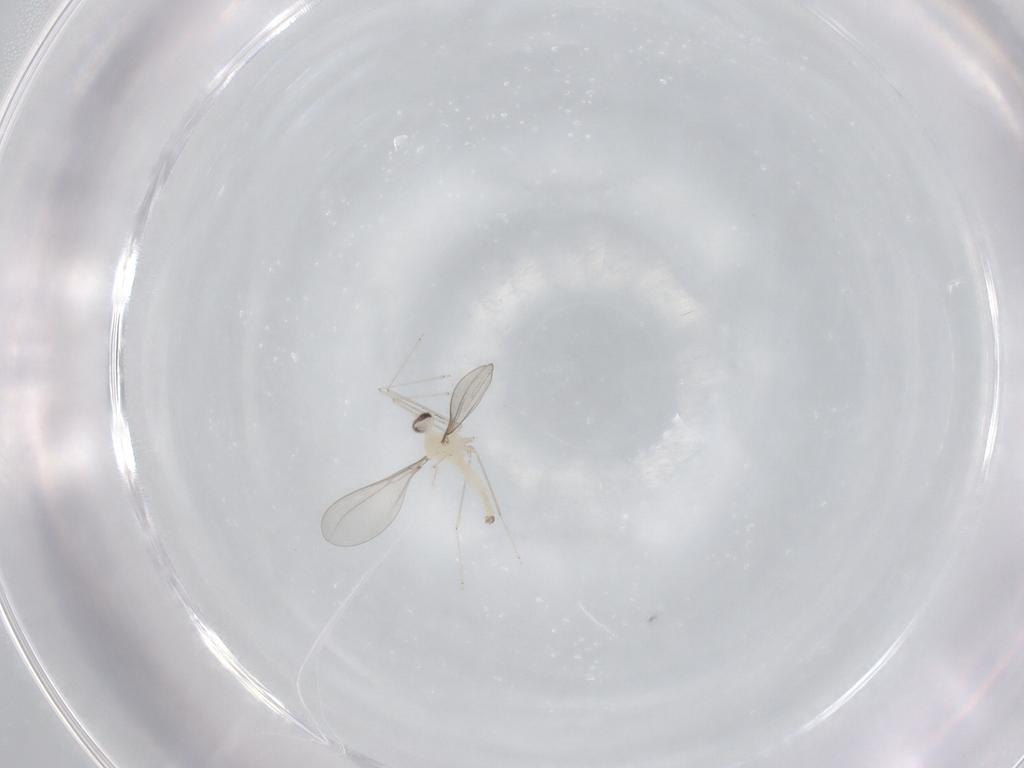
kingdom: Animalia
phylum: Arthropoda
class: Insecta
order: Diptera
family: Cecidomyiidae
